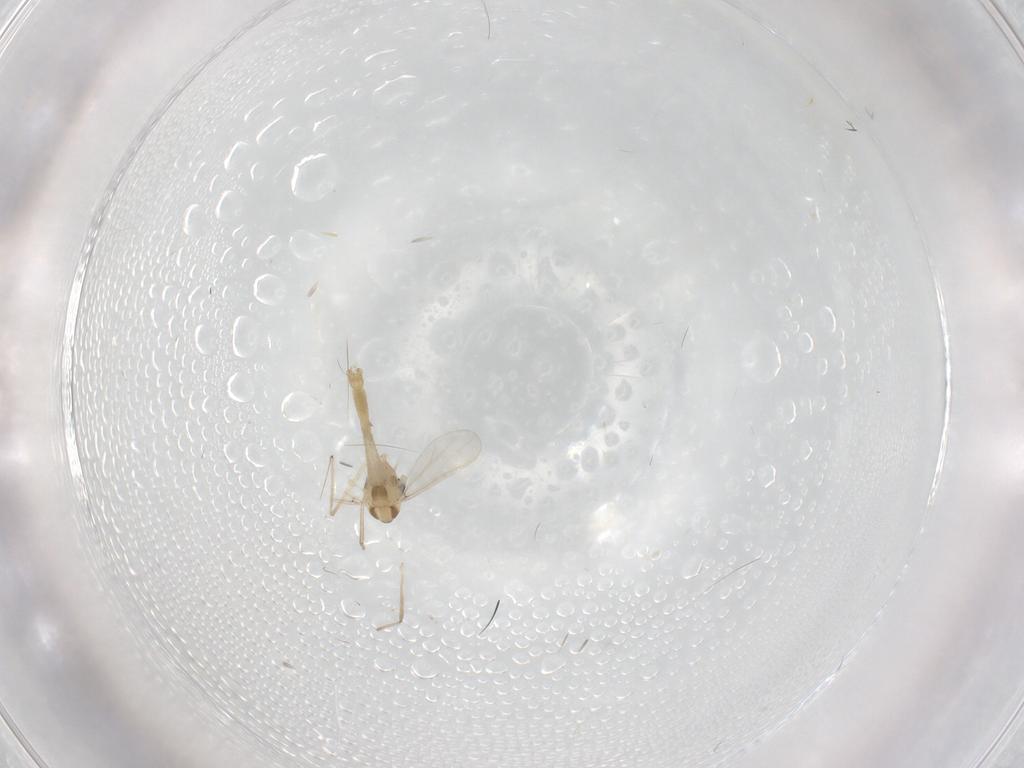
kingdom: Animalia
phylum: Arthropoda
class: Insecta
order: Diptera
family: Chironomidae
